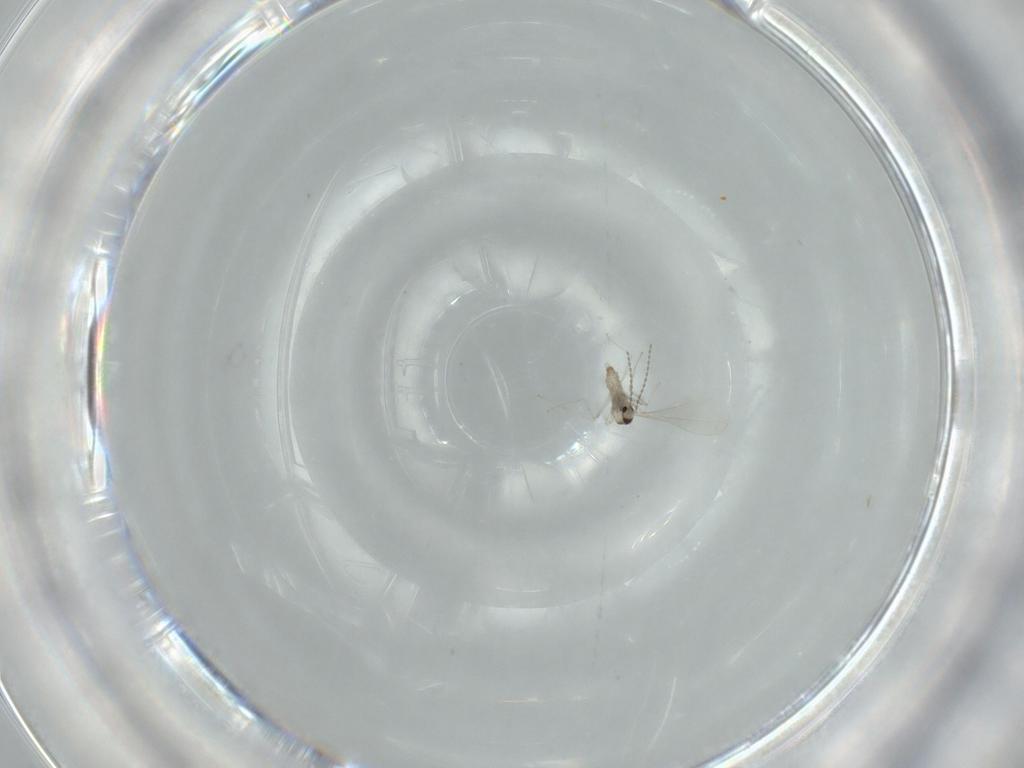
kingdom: Animalia
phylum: Arthropoda
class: Insecta
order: Diptera
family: Cecidomyiidae
